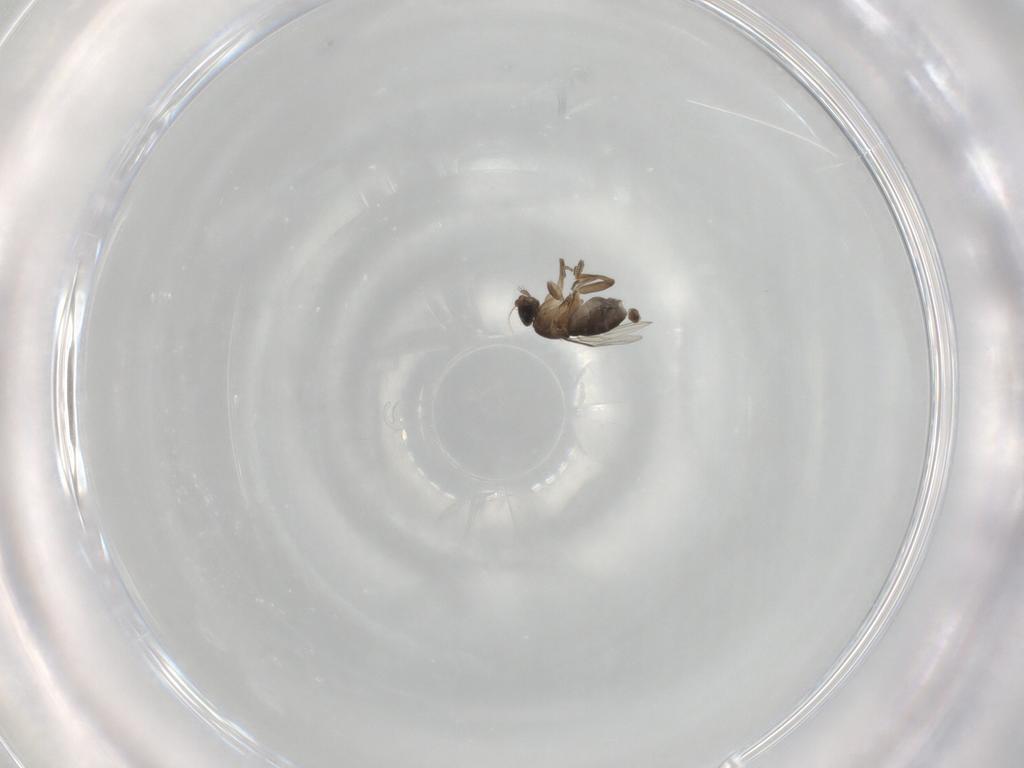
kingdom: Animalia
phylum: Arthropoda
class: Insecta
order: Diptera
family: Phoridae
